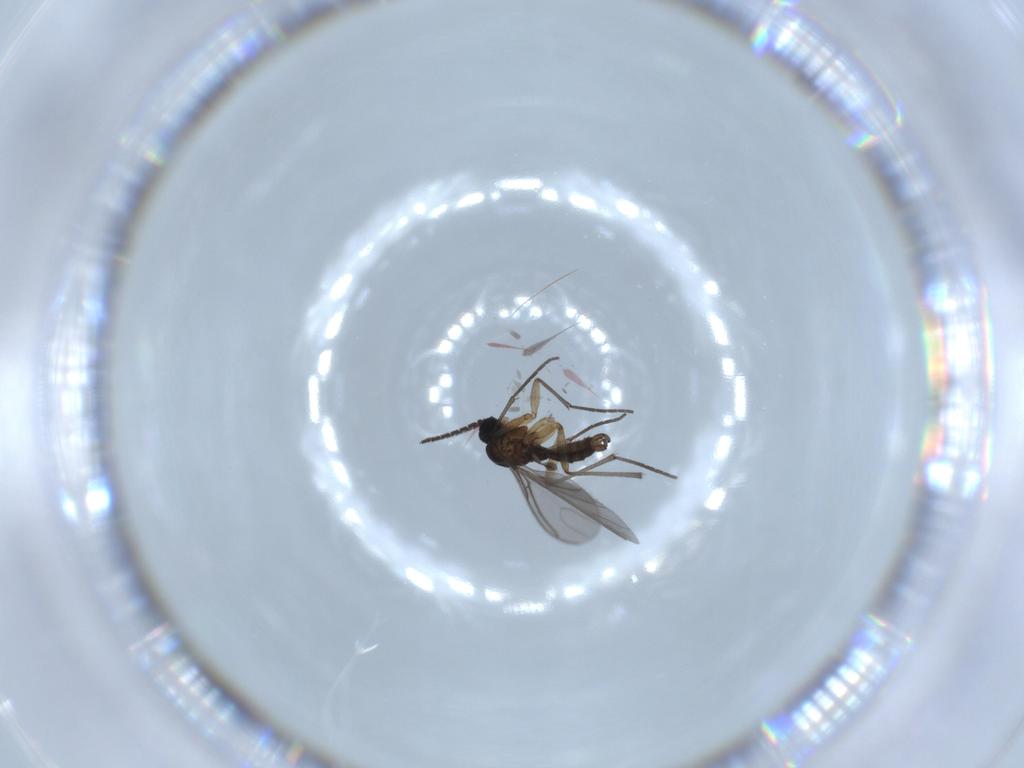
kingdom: Animalia
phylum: Arthropoda
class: Insecta
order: Diptera
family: Sciaridae
